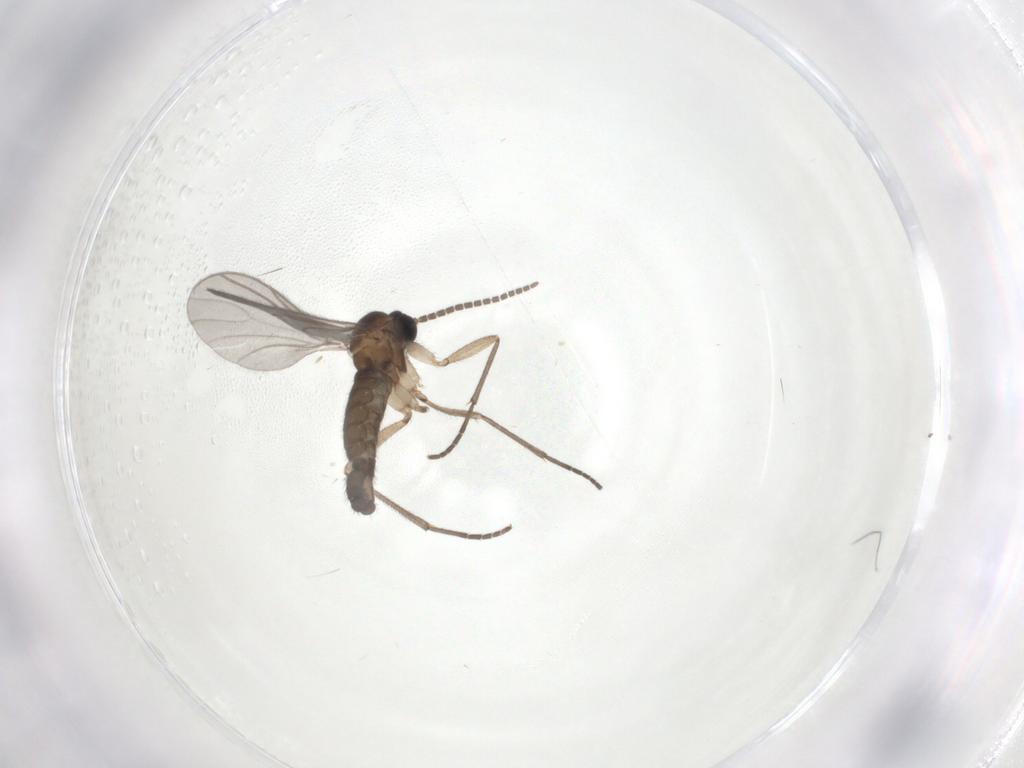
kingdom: Animalia
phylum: Arthropoda
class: Insecta
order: Diptera
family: Sciaridae
